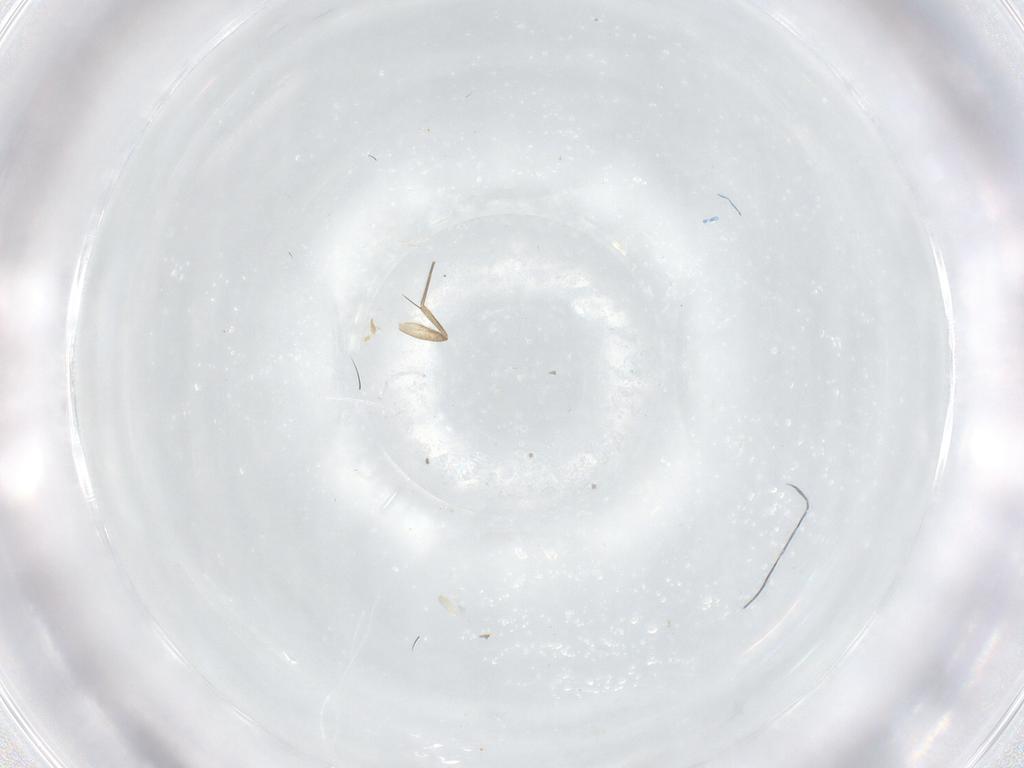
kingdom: Animalia
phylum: Arthropoda
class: Insecta
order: Diptera
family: Phoridae
